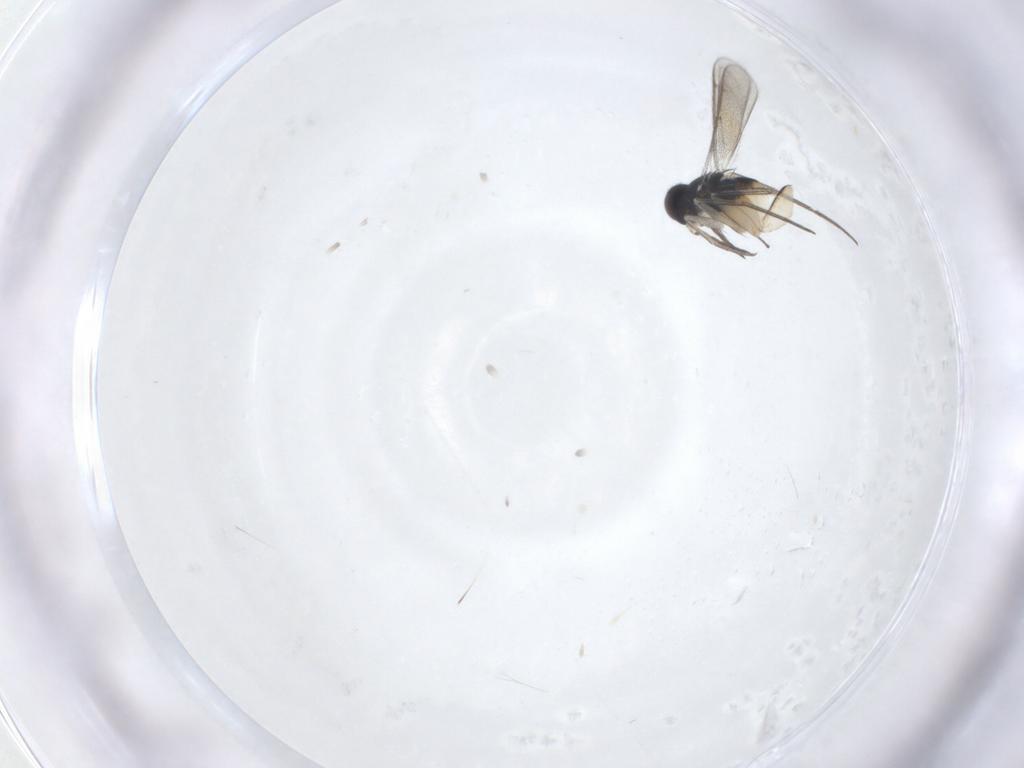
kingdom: Animalia
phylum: Arthropoda
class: Insecta
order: Hymenoptera
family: Eulophidae
